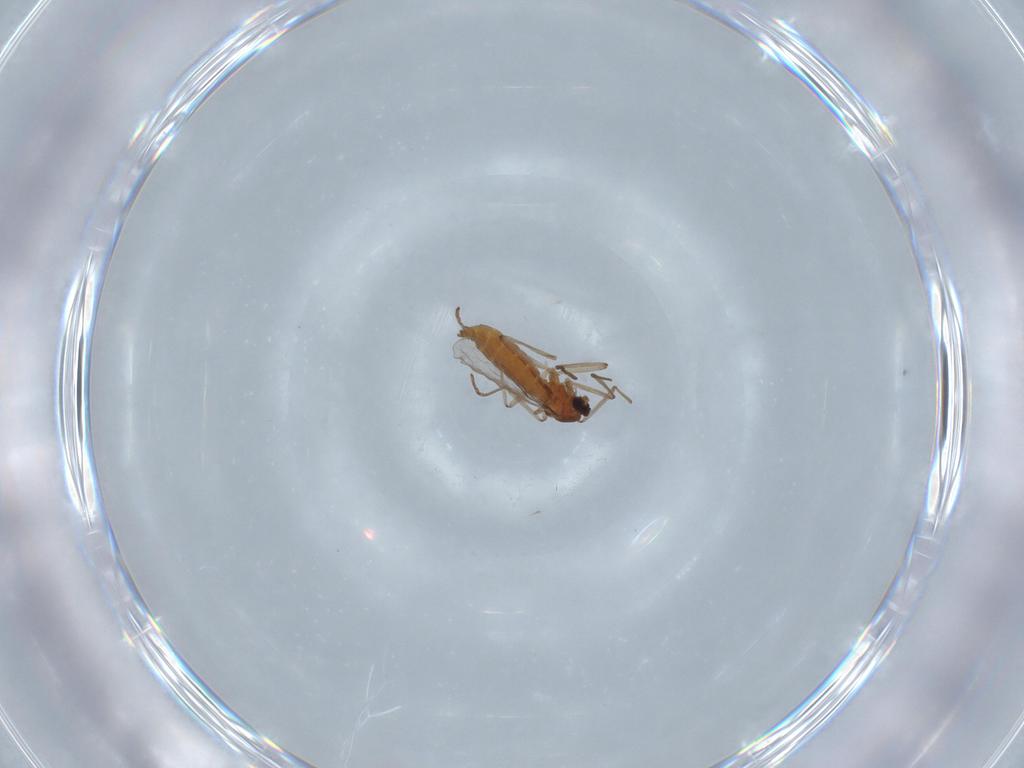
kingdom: Animalia
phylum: Arthropoda
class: Insecta
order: Diptera
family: Cecidomyiidae
